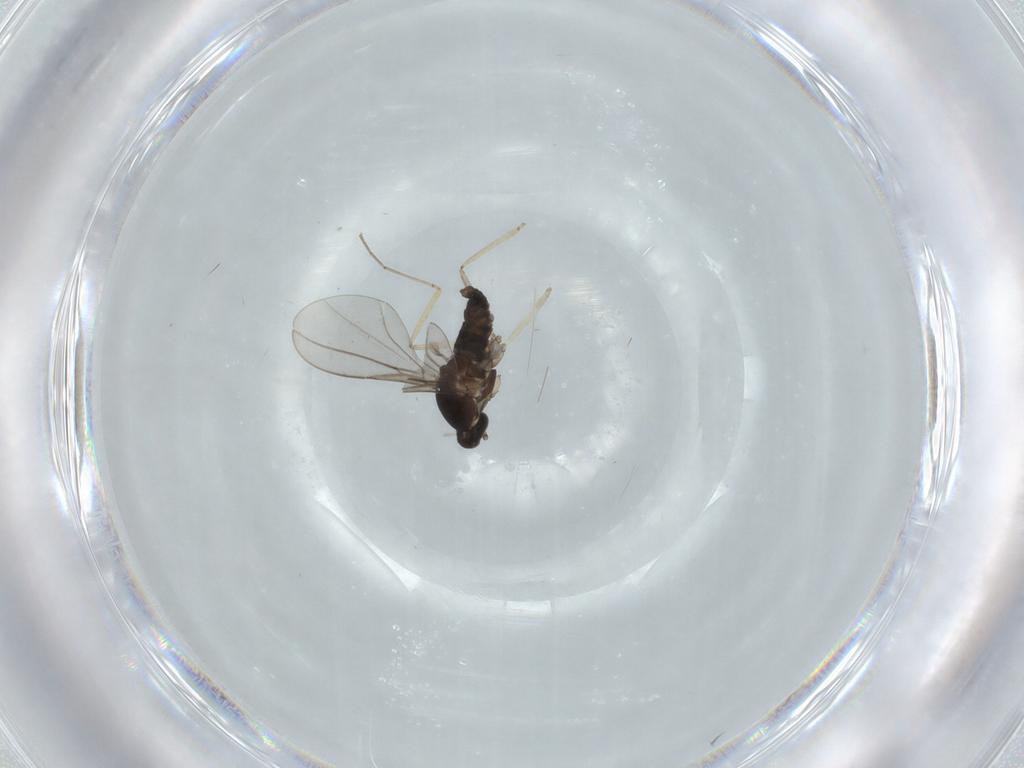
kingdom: Animalia
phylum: Arthropoda
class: Insecta
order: Diptera
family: Cecidomyiidae
